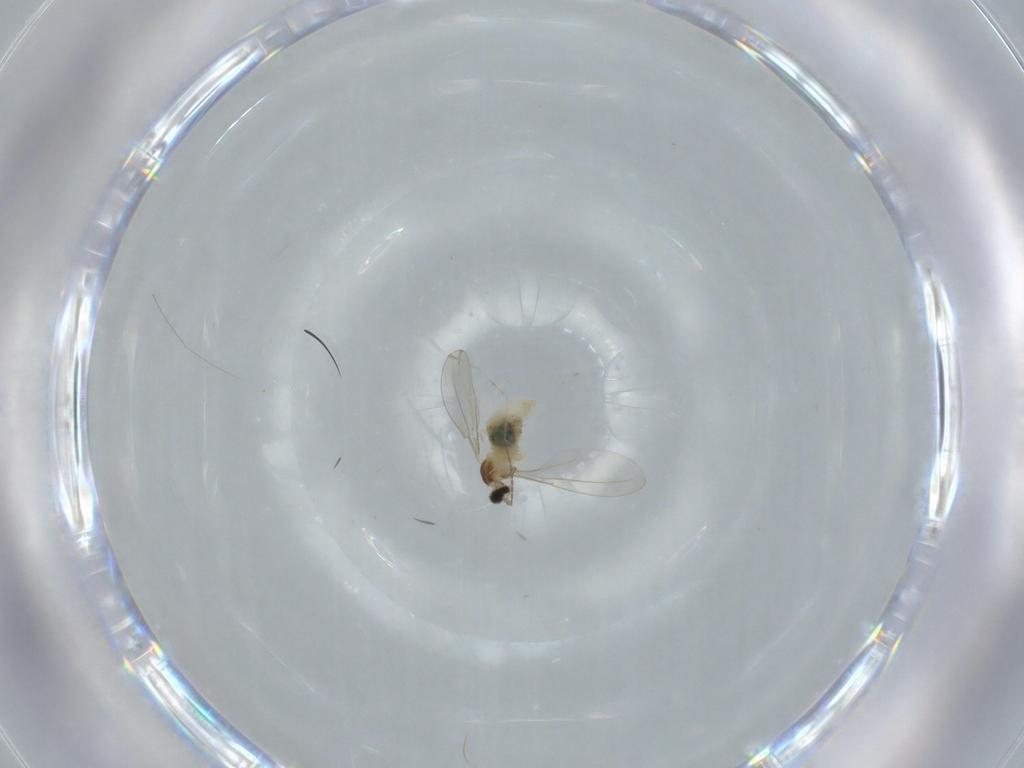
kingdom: Animalia
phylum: Arthropoda
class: Insecta
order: Diptera
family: Cecidomyiidae
